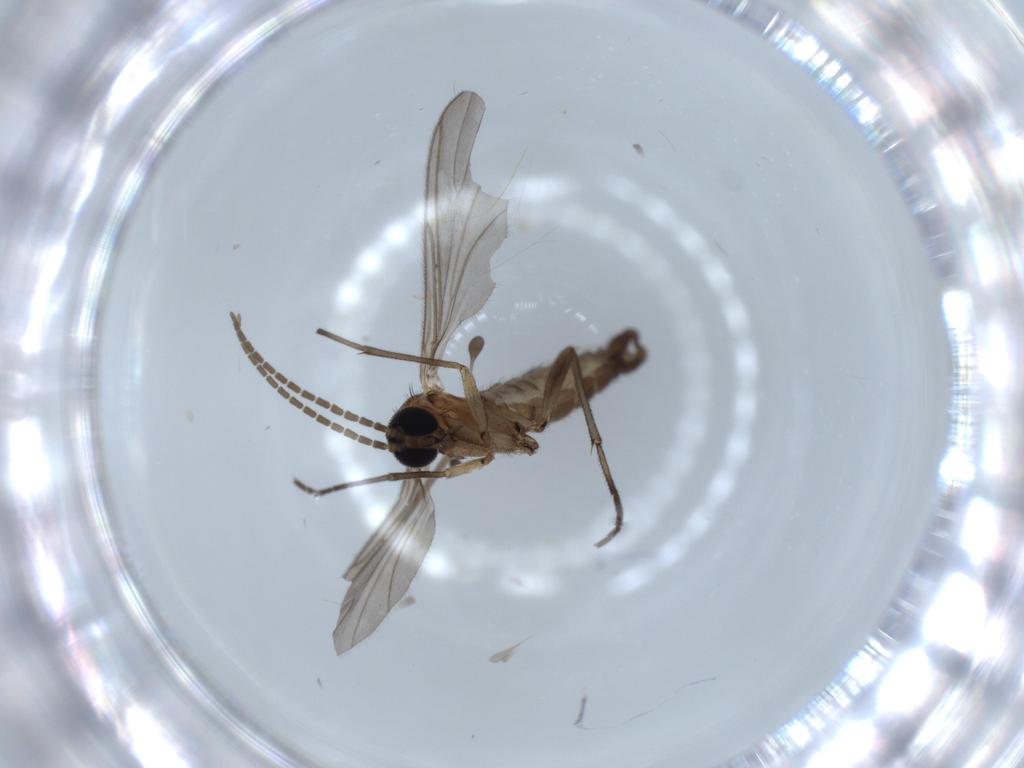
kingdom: Animalia
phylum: Arthropoda
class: Insecta
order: Diptera
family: Sciaridae
